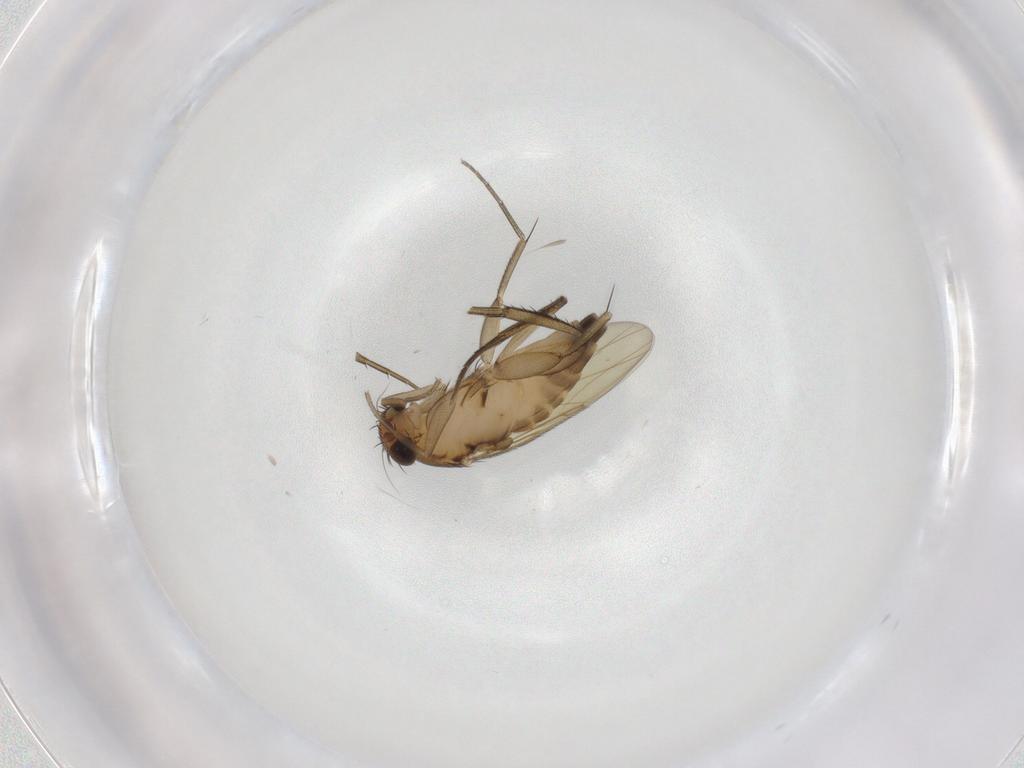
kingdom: Animalia
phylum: Arthropoda
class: Insecta
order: Diptera
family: Phoridae
